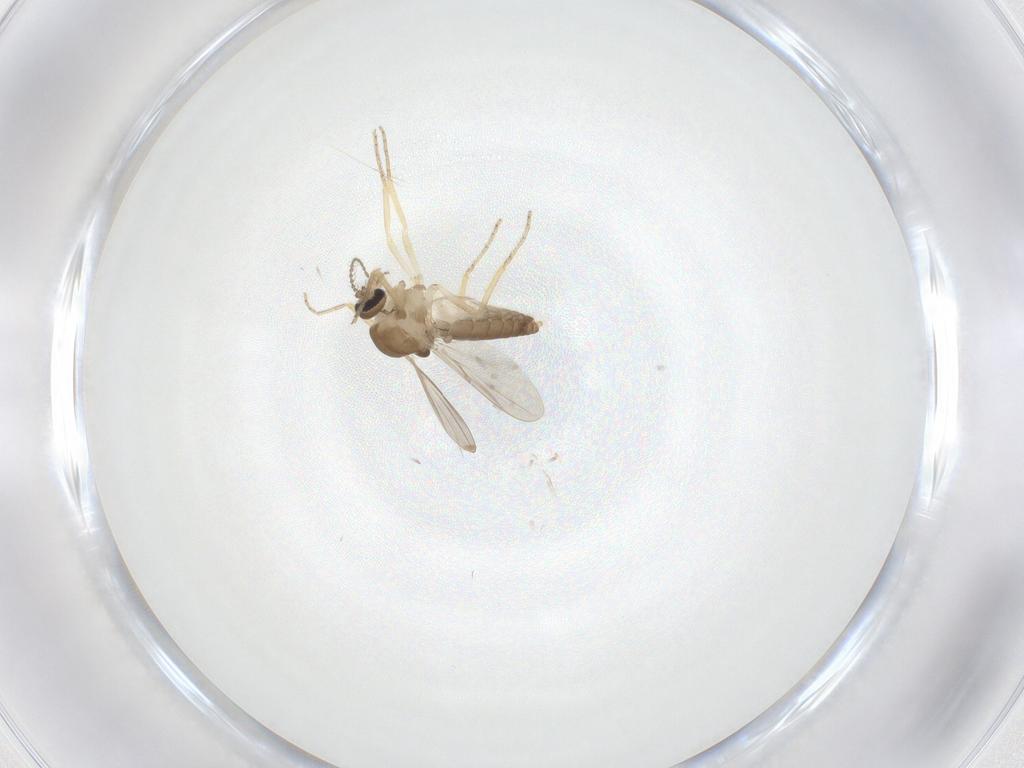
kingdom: Animalia
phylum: Arthropoda
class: Insecta
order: Diptera
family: Ceratopogonidae
